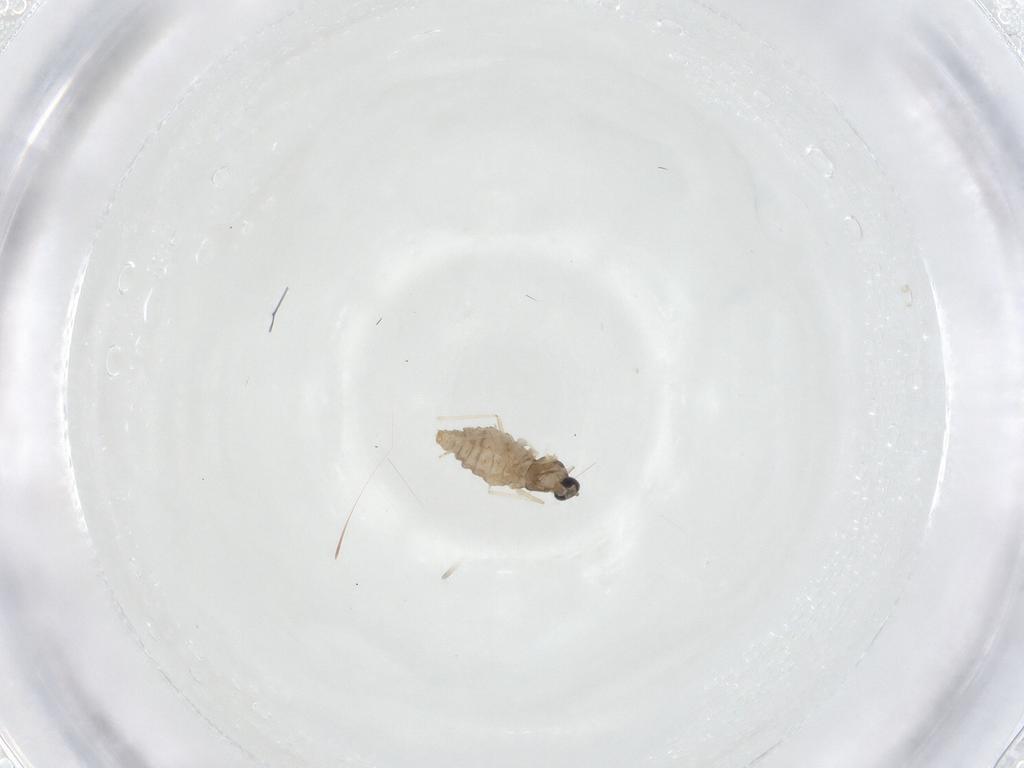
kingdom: Animalia
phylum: Arthropoda
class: Insecta
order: Diptera
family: Cecidomyiidae
